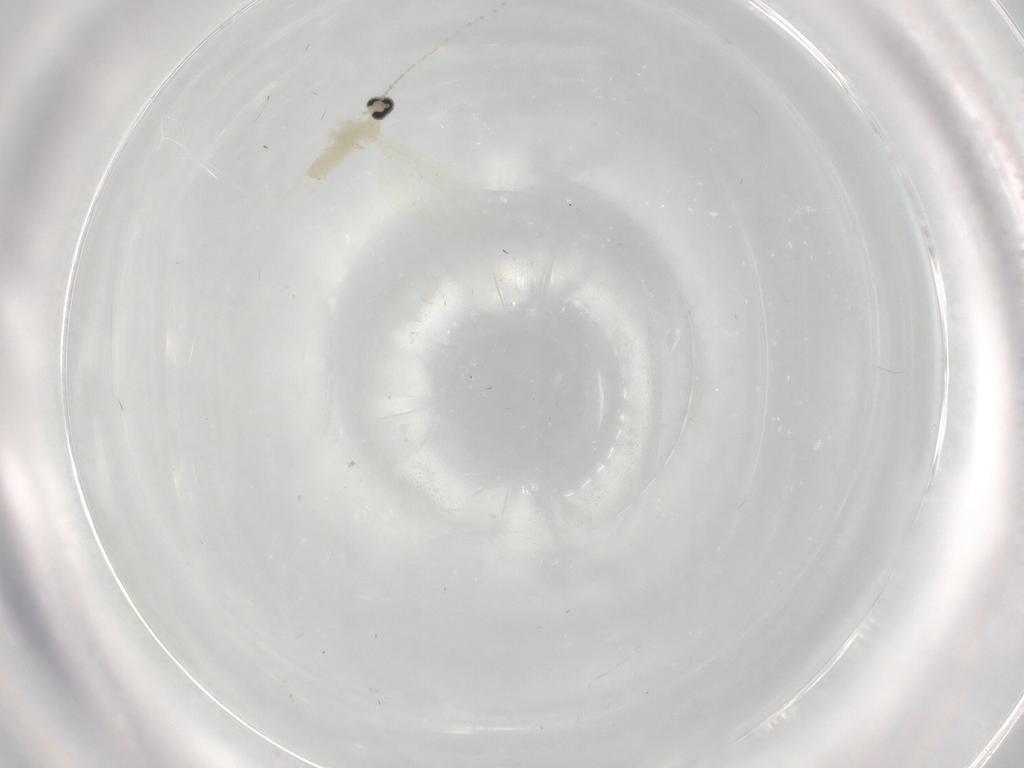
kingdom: Animalia
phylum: Arthropoda
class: Insecta
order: Diptera
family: Cecidomyiidae
